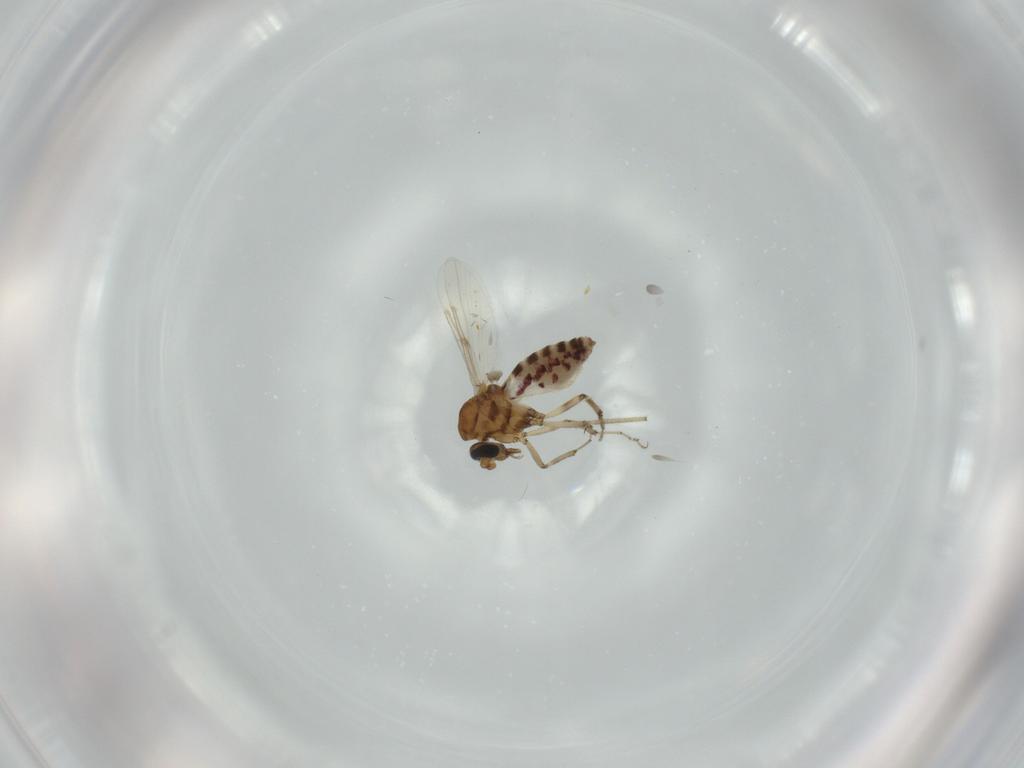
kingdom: Animalia
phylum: Arthropoda
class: Insecta
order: Diptera
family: Ceratopogonidae
